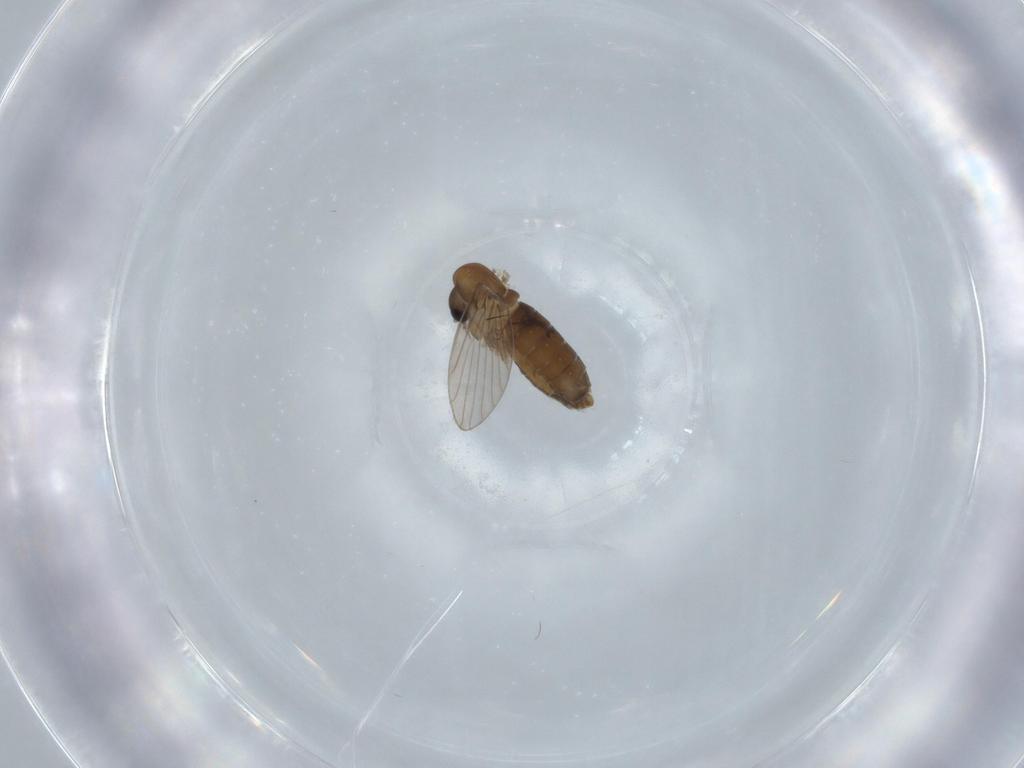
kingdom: Animalia
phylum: Arthropoda
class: Insecta
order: Diptera
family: Psychodidae
